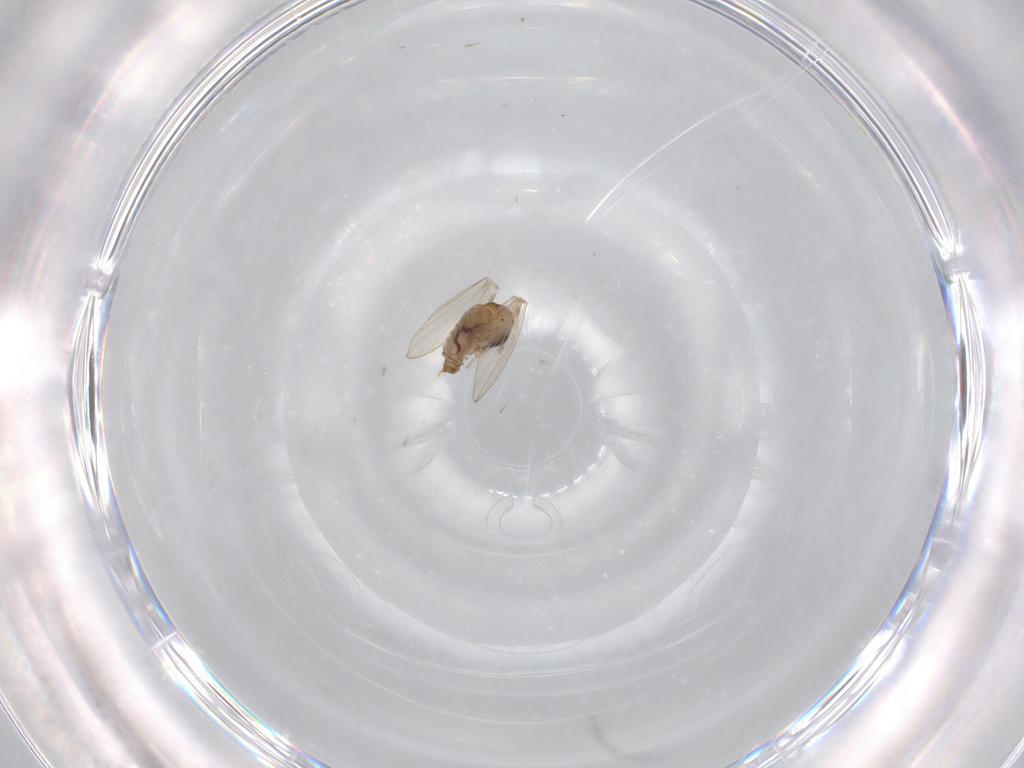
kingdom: Animalia
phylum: Arthropoda
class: Insecta
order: Diptera
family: Psychodidae
